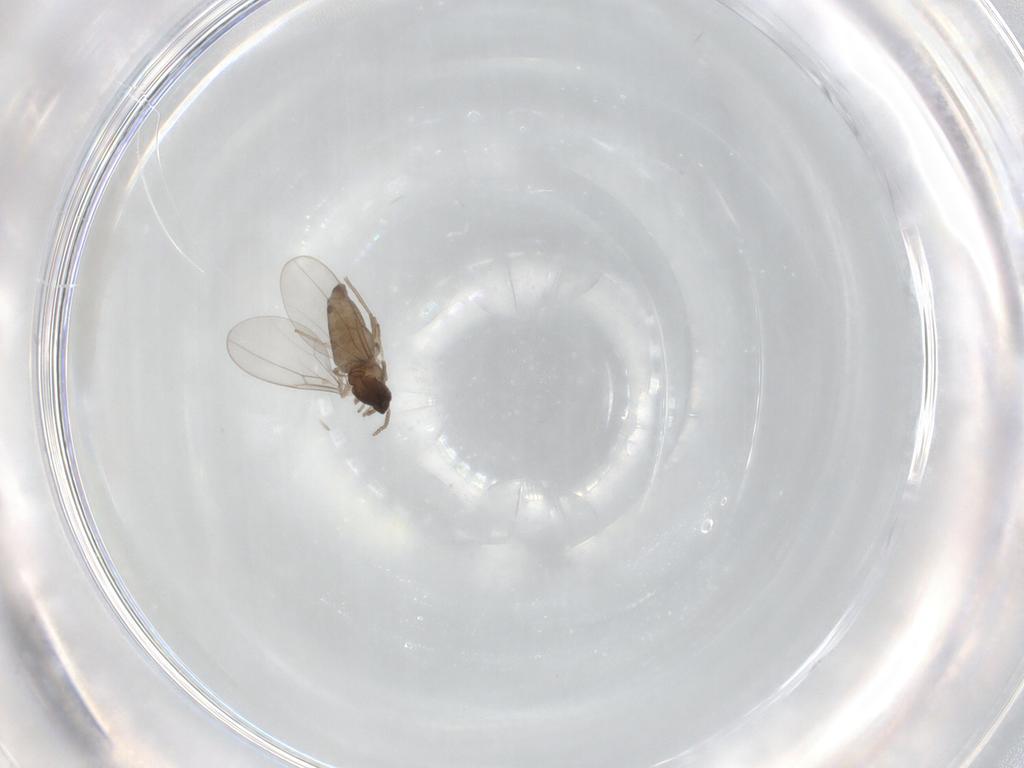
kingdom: Animalia
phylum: Arthropoda
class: Insecta
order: Diptera
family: Cecidomyiidae
